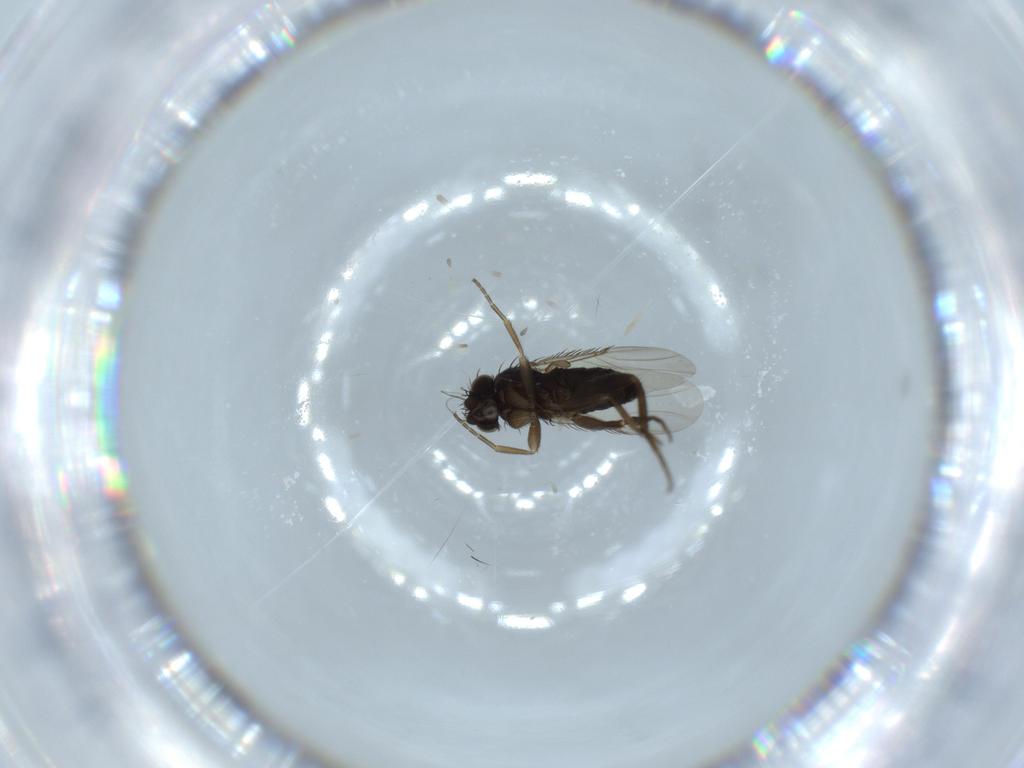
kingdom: Animalia
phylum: Arthropoda
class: Insecta
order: Diptera
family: Phoridae
